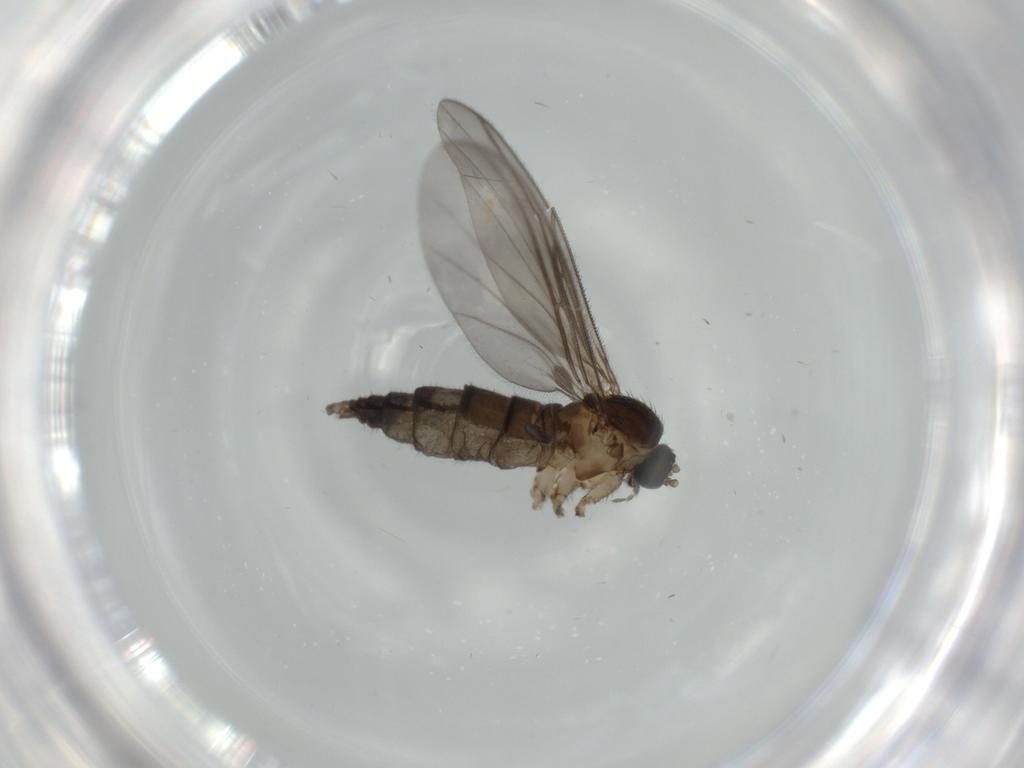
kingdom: Animalia
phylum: Arthropoda
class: Insecta
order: Diptera
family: Sciaridae
